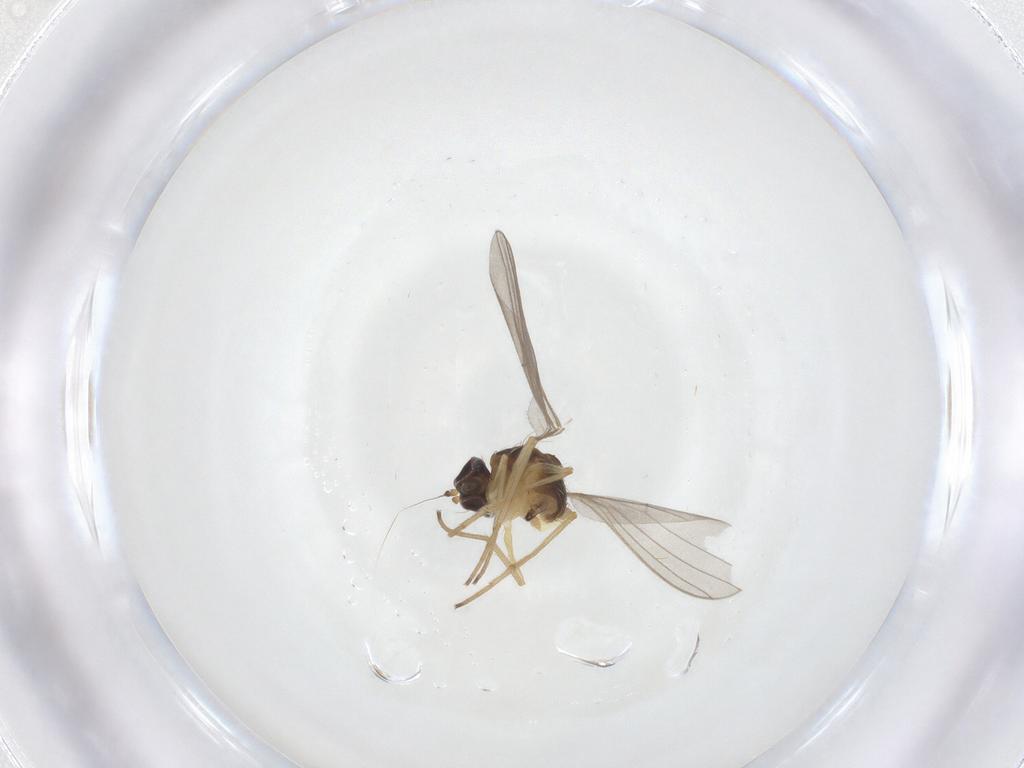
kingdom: Animalia
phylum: Arthropoda
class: Insecta
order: Diptera
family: Dolichopodidae
